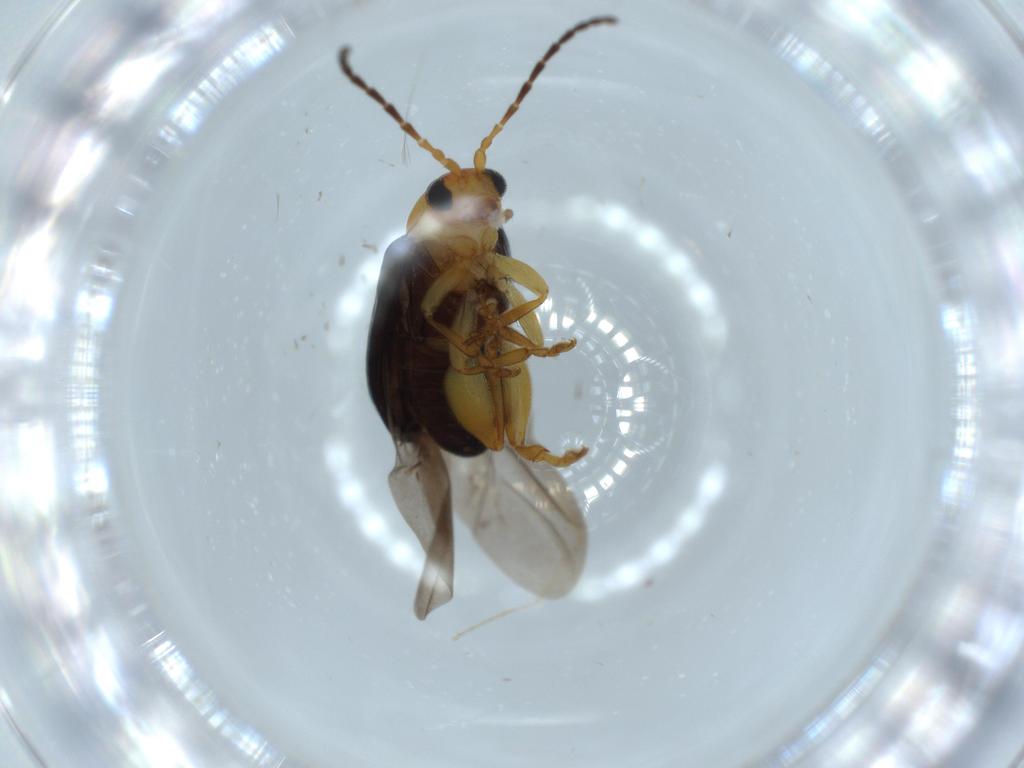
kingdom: Animalia
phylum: Arthropoda
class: Insecta
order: Coleoptera
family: Chrysomelidae
